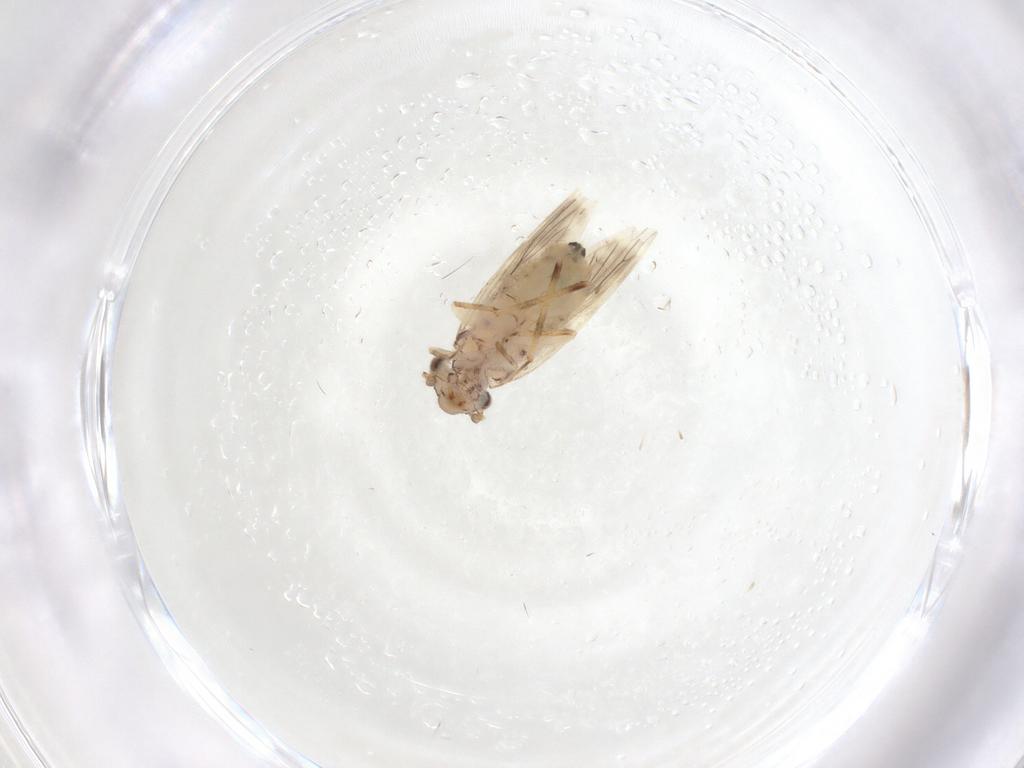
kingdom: Animalia
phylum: Arthropoda
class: Insecta
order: Psocodea
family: Lepidopsocidae
